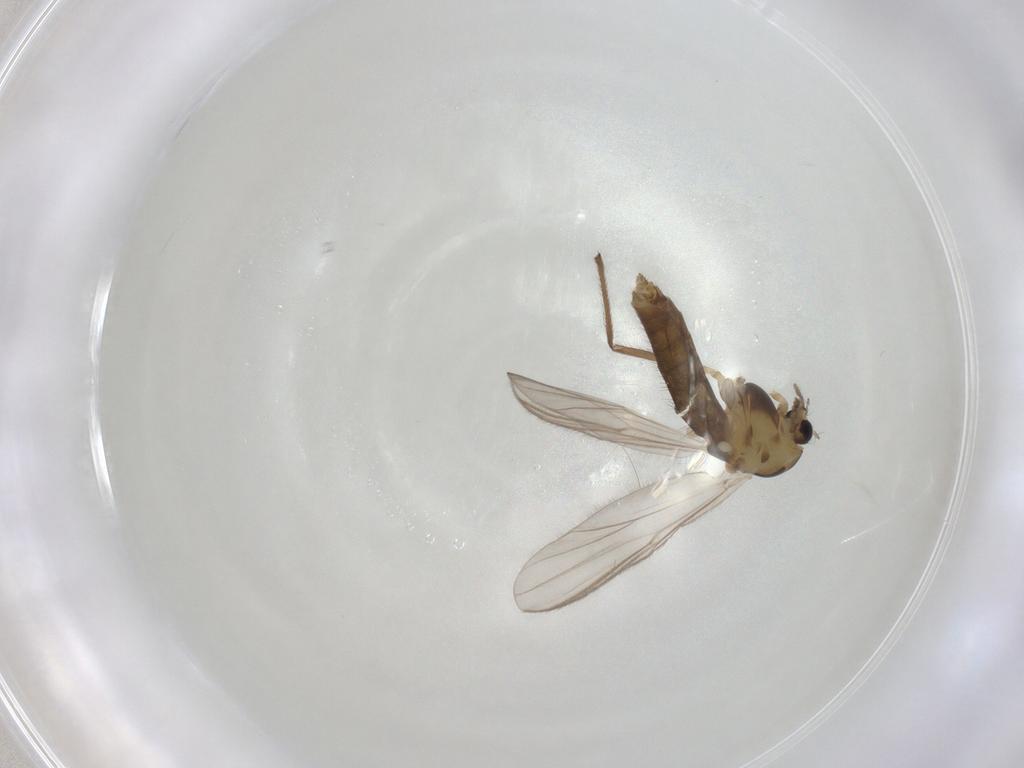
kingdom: Animalia
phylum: Arthropoda
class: Insecta
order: Diptera
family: Chironomidae
